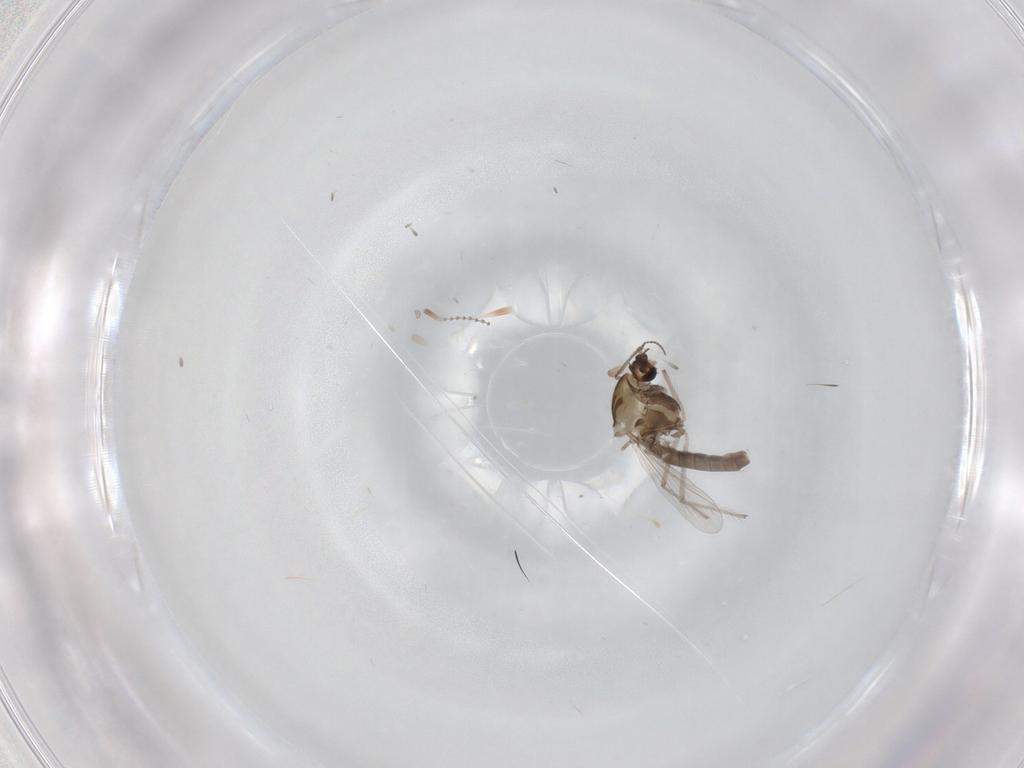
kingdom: Animalia
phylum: Arthropoda
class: Insecta
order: Diptera
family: Chironomidae
